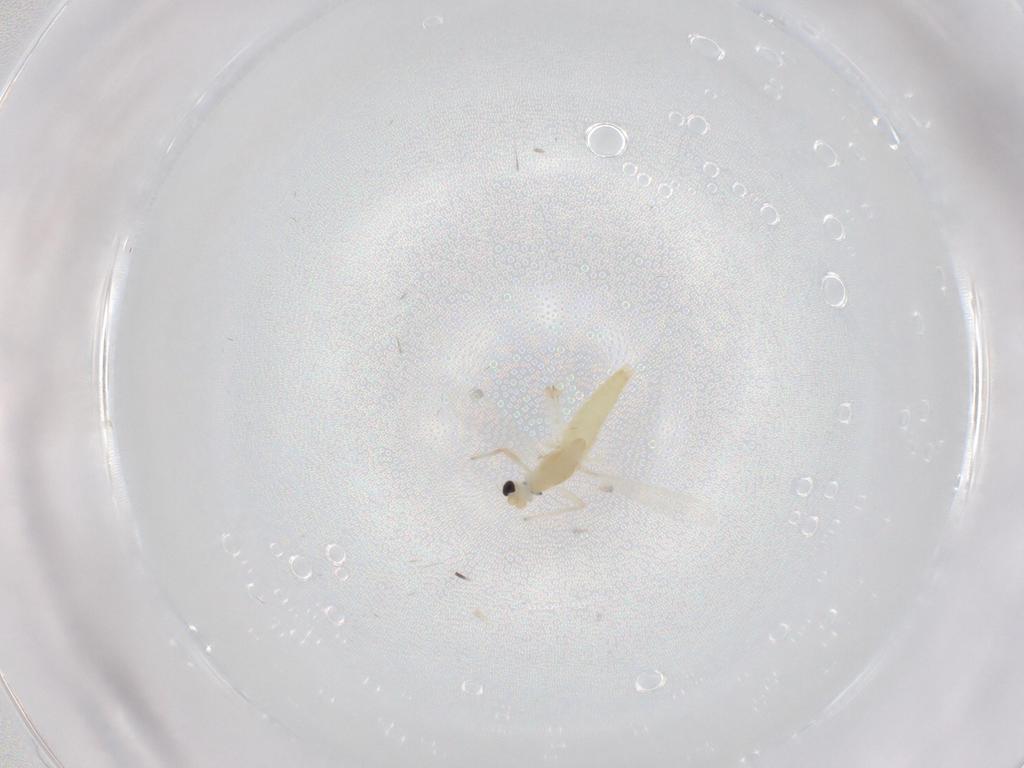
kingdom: Animalia
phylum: Arthropoda
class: Insecta
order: Diptera
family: Chironomidae
